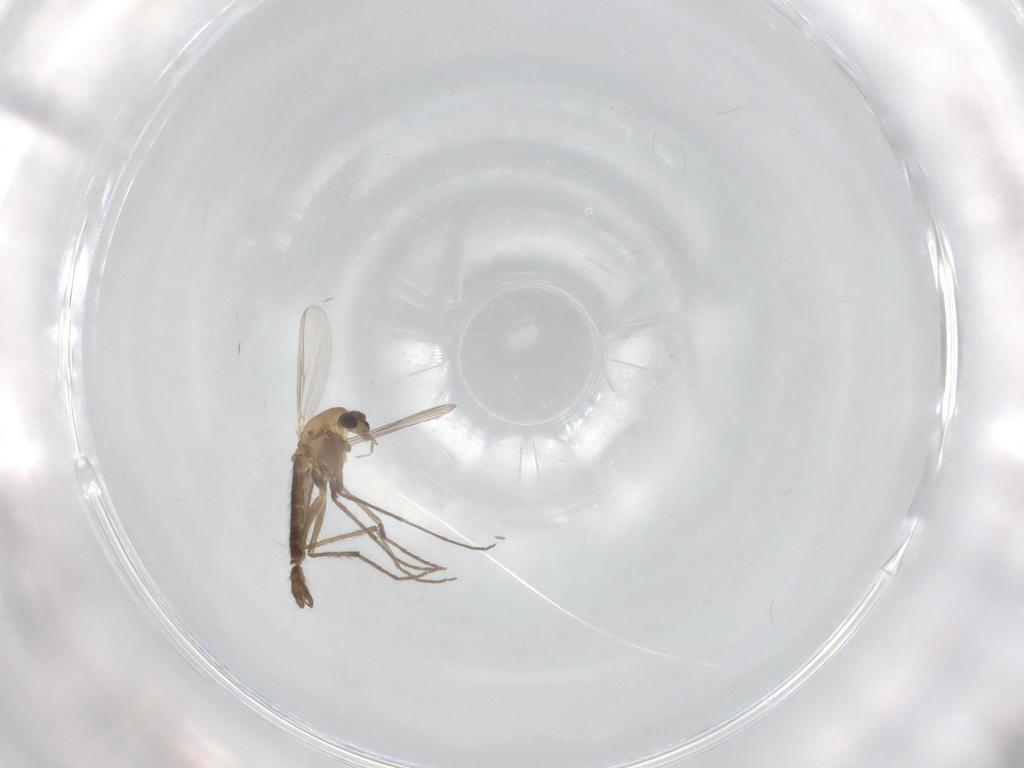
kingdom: Animalia
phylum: Arthropoda
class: Insecta
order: Diptera
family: Chironomidae
